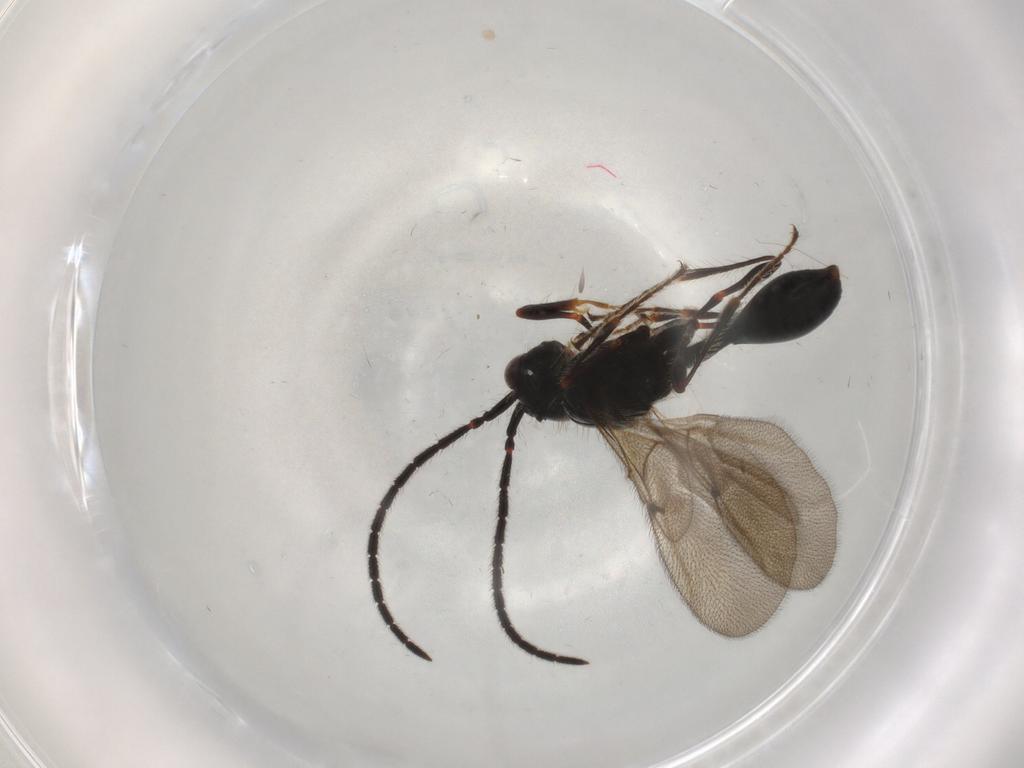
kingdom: Animalia
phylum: Arthropoda
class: Insecta
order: Hymenoptera
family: Diapriidae
